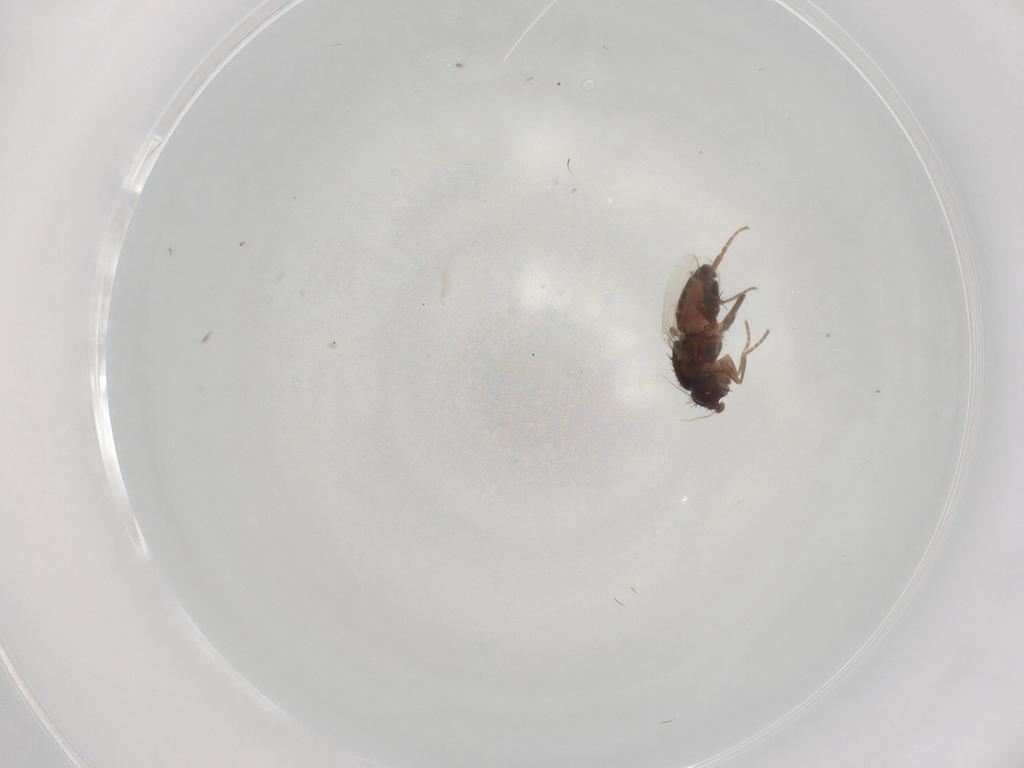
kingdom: Animalia
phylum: Arthropoda
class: Insecta
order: Diptera
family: Sphaeroceridae
